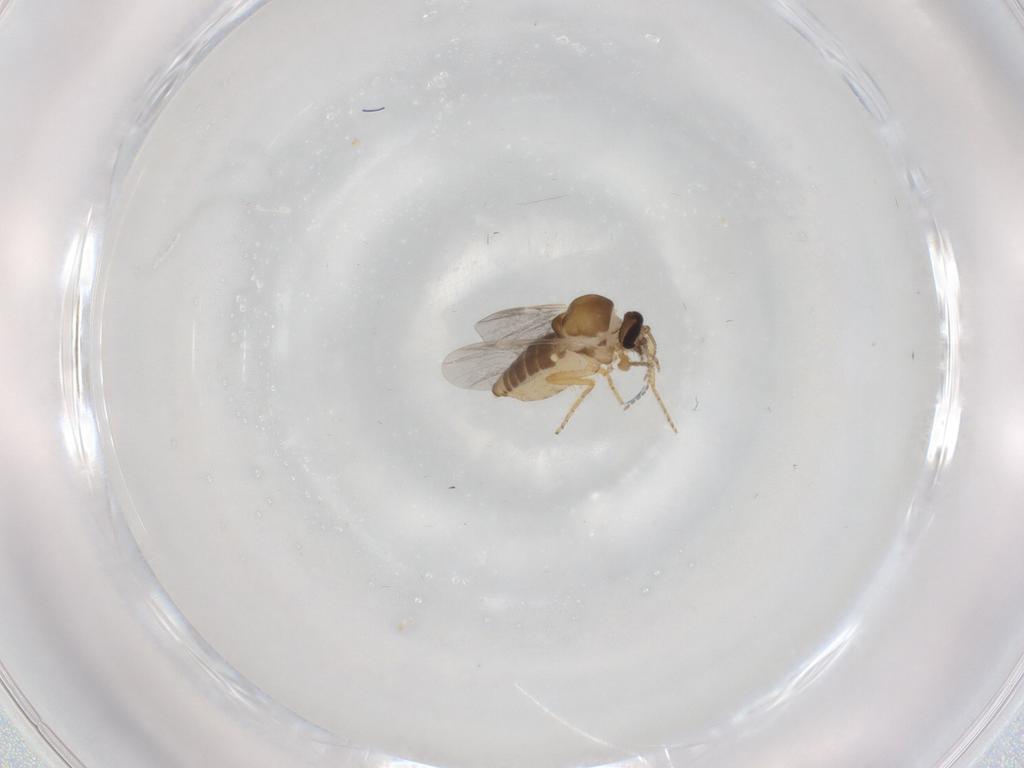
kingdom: Animalia
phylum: Arthropoda
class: Insecta
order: Diptera
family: Ceratopogonidae
